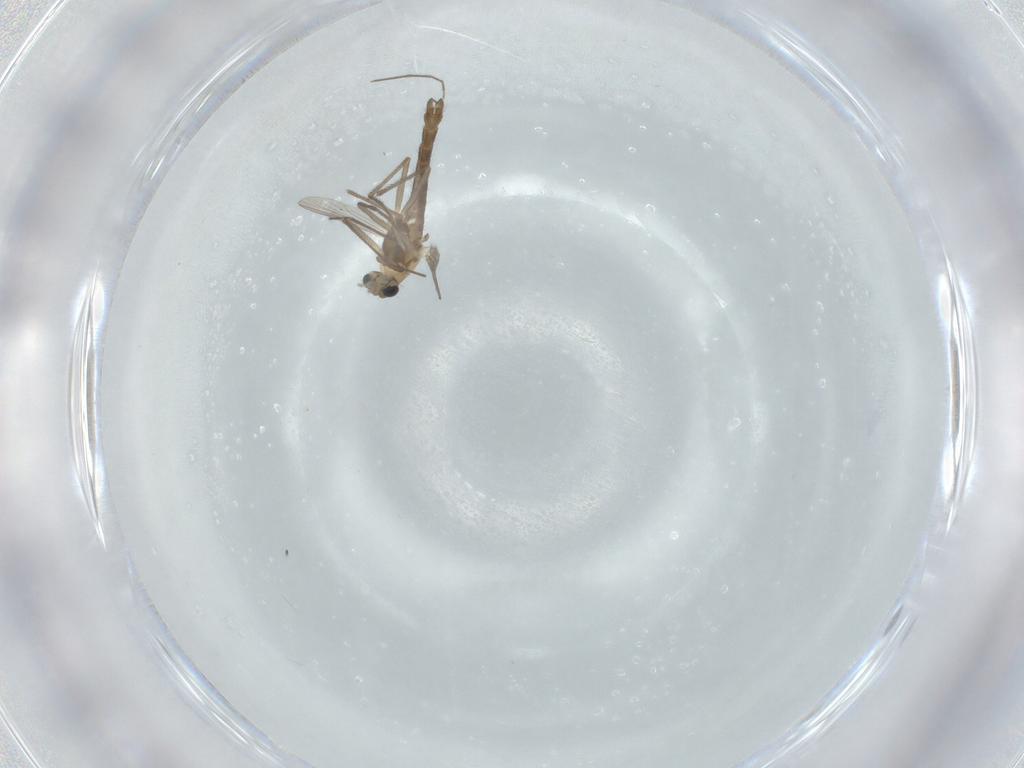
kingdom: Animalia
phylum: Arthropoda
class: Insecta
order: Diptera
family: Chironomidae
